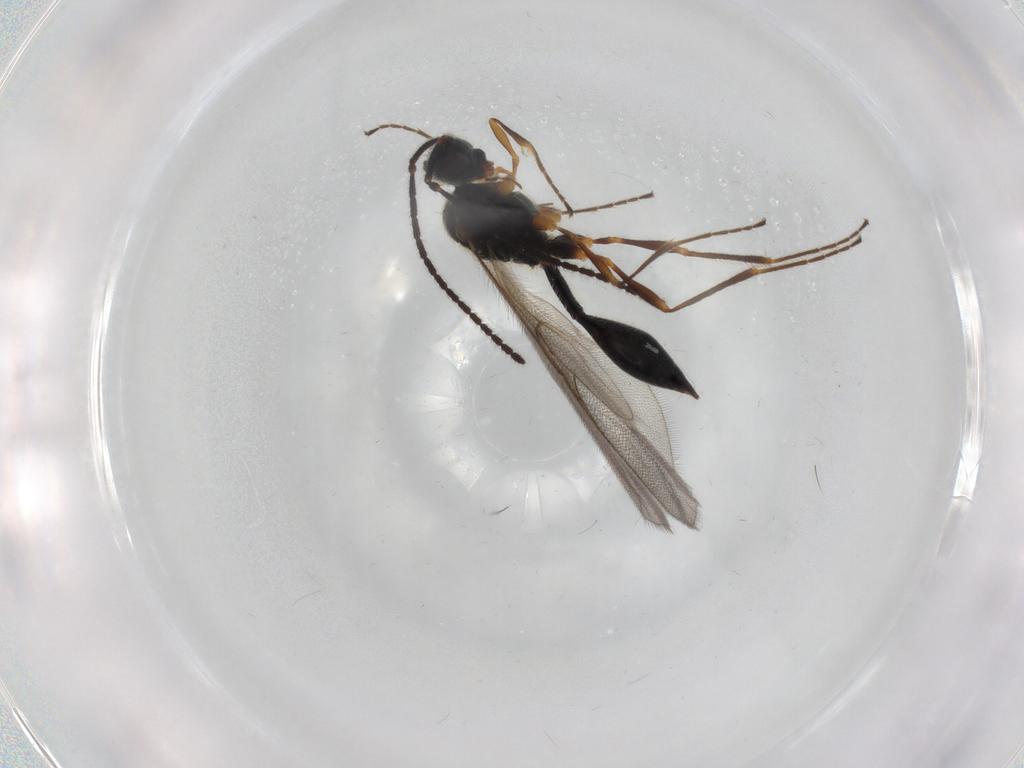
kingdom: Animalia
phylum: Arthropoda
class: Insecta
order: Hymenoptera
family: Diapriidae
